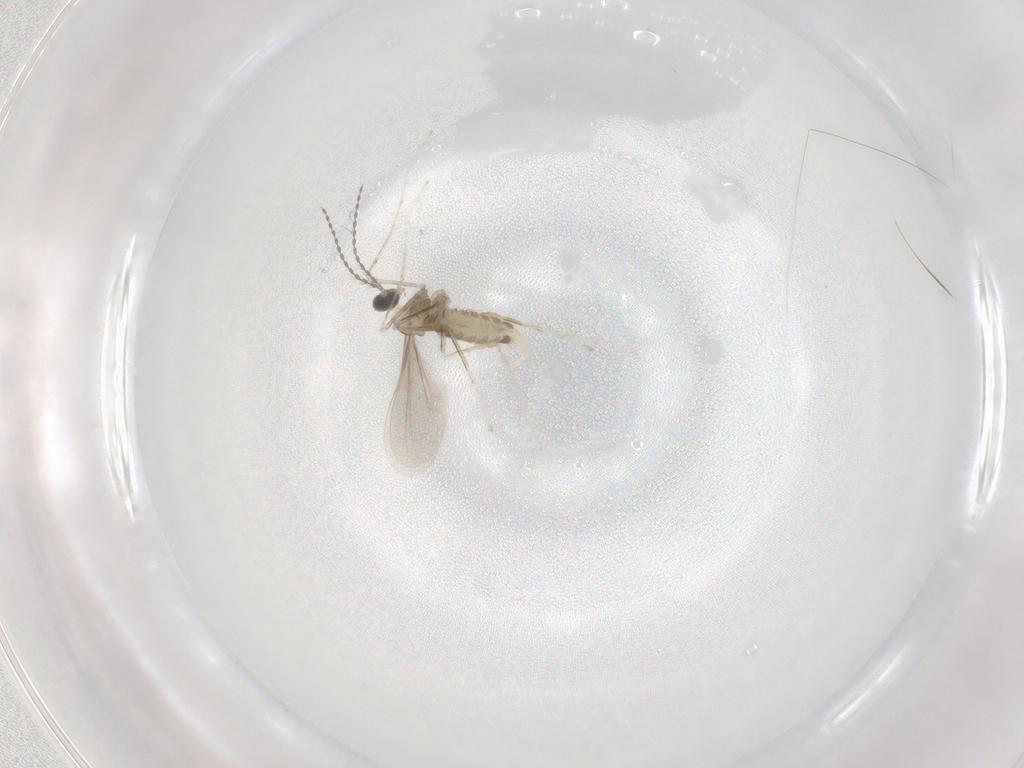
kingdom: Animalia
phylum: Arthropoda
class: Insecta
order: Diptera
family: Cecidomyiidae
